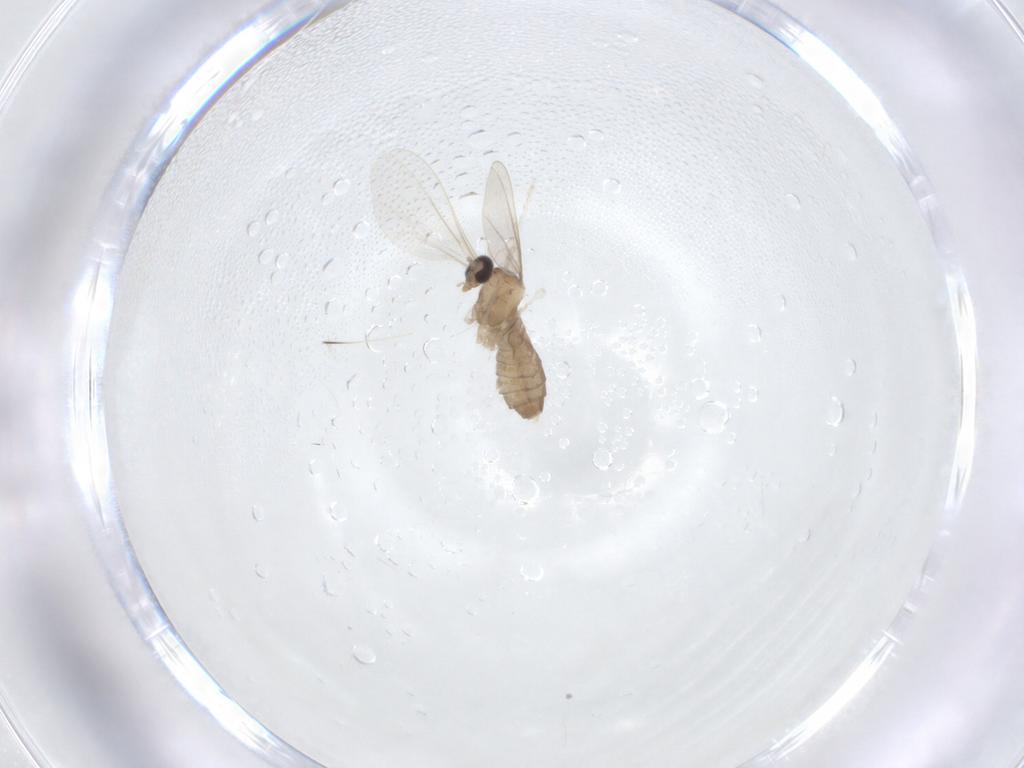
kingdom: Animalia
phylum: Arthropoda
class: Insecta
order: Diptera
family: Cecidomyiidae
